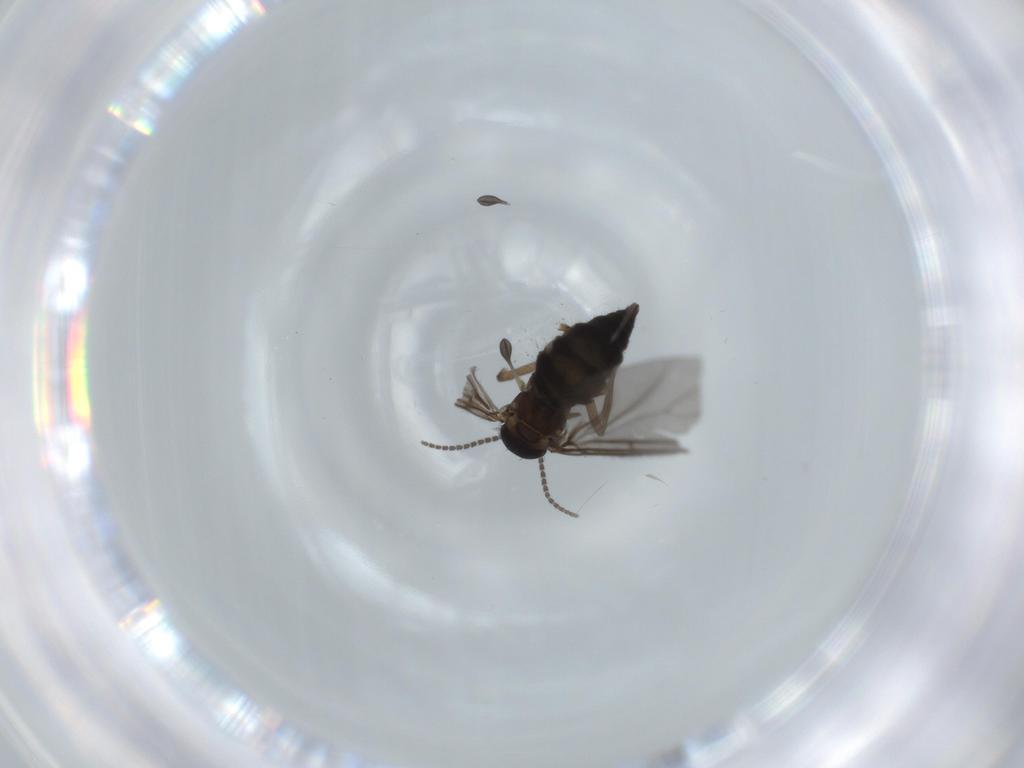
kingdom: Animalia
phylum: Arthropoda
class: Insecta
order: Diptera
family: Sciaridae
